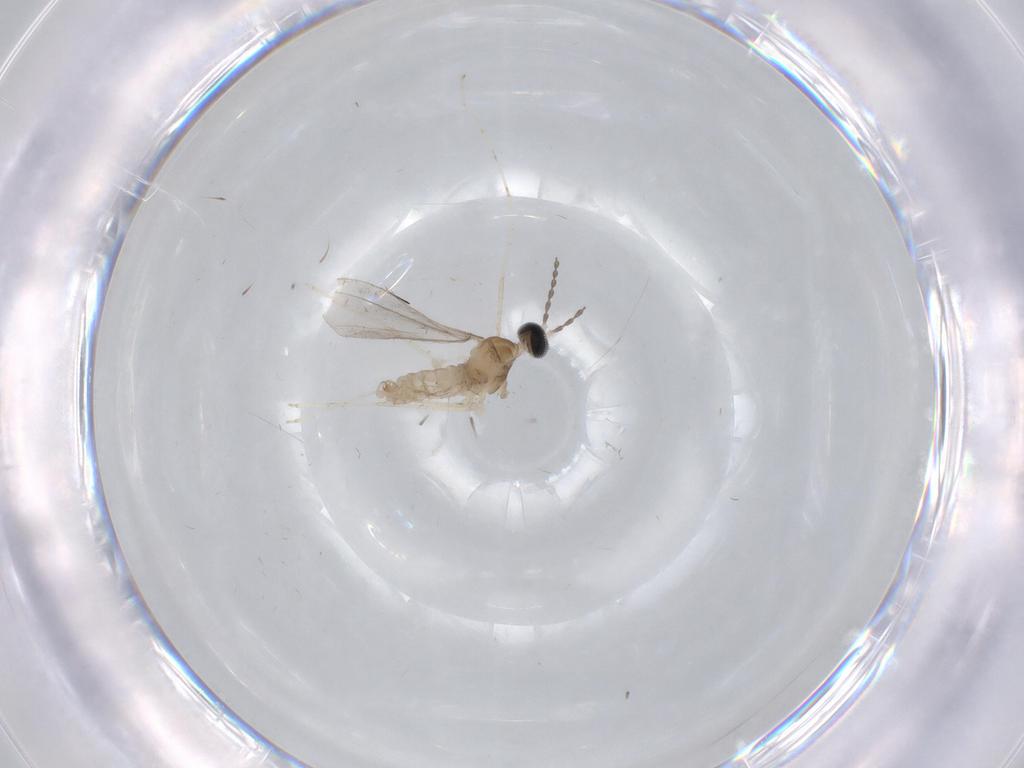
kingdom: Animalia
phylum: Arthropoda
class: Insecta
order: Diptera
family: Cecidomyiidae
